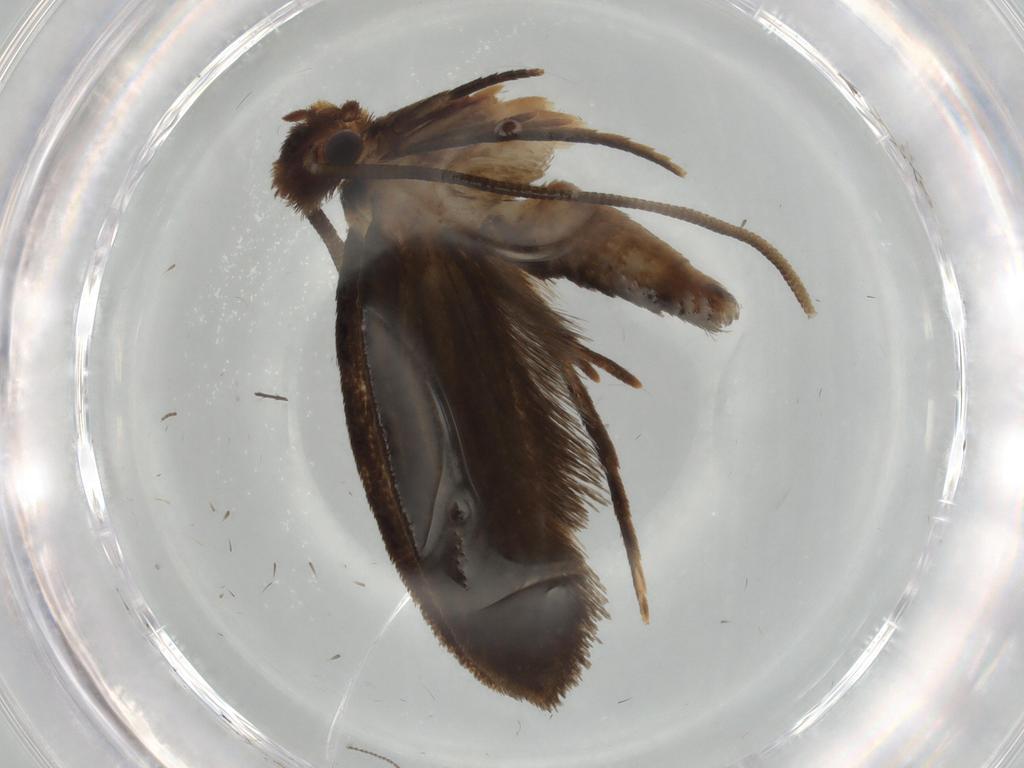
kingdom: Animalia
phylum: Arthropoda
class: Insecta
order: Lepidoptera
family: Tineidae
